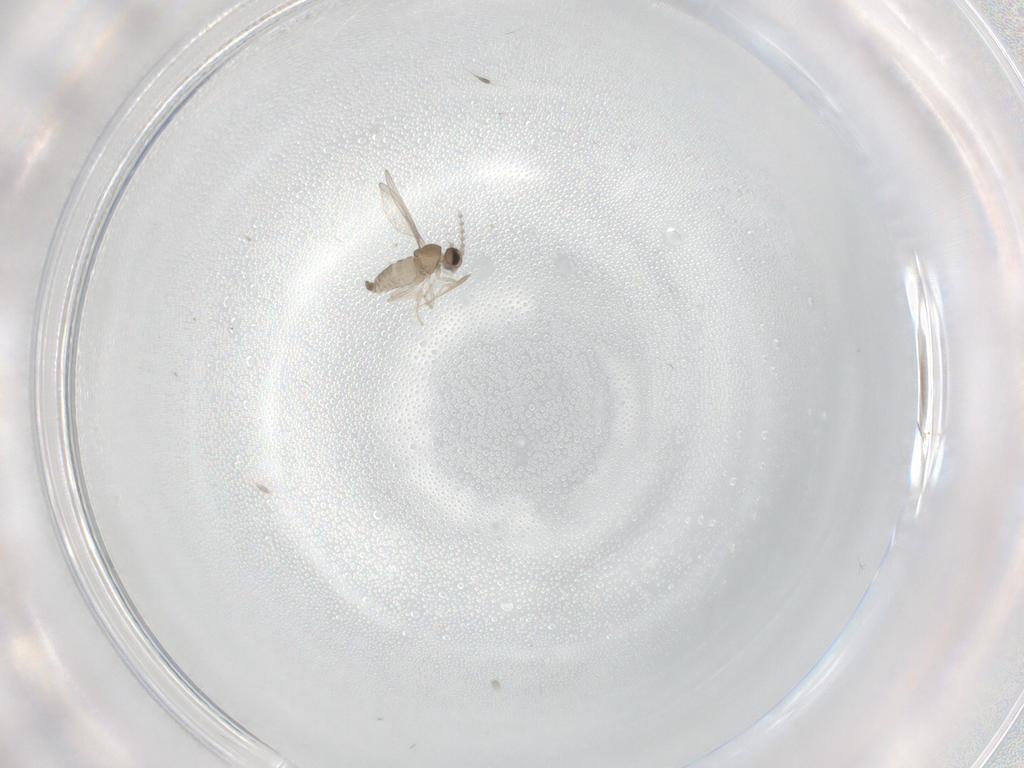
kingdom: Animalia
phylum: Arthropoda
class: Insecta
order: Diptera
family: Cecidomyiidae
